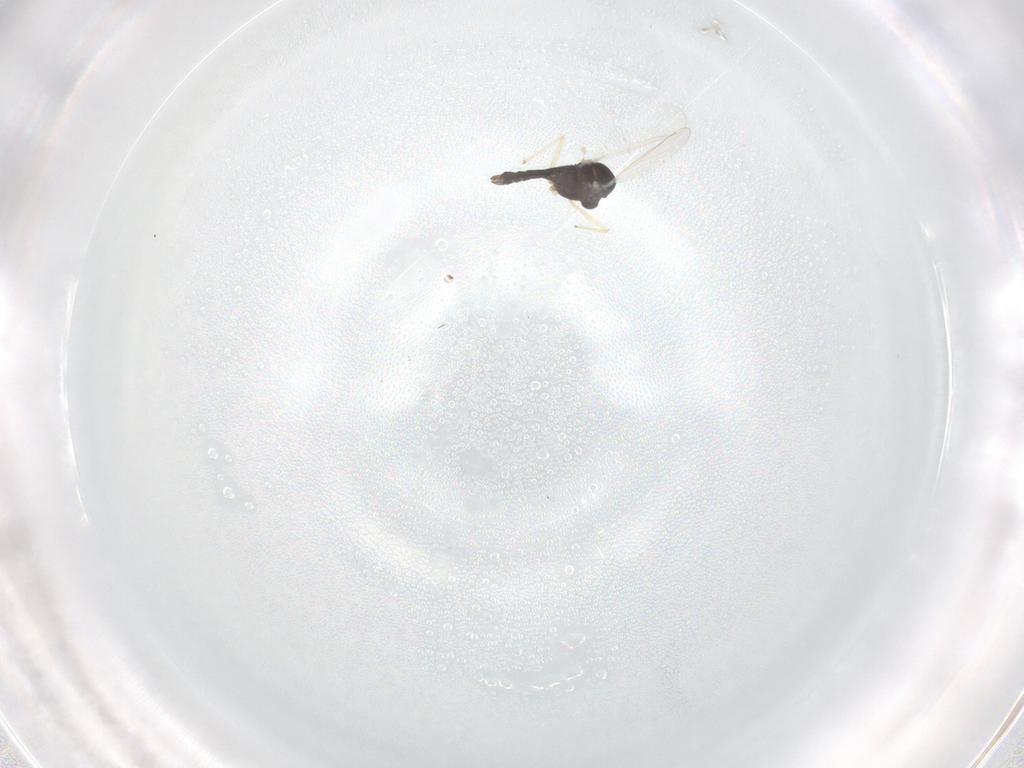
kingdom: Animalia
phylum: Arthropoda
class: Insecta
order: Diptera
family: Chironomidae
